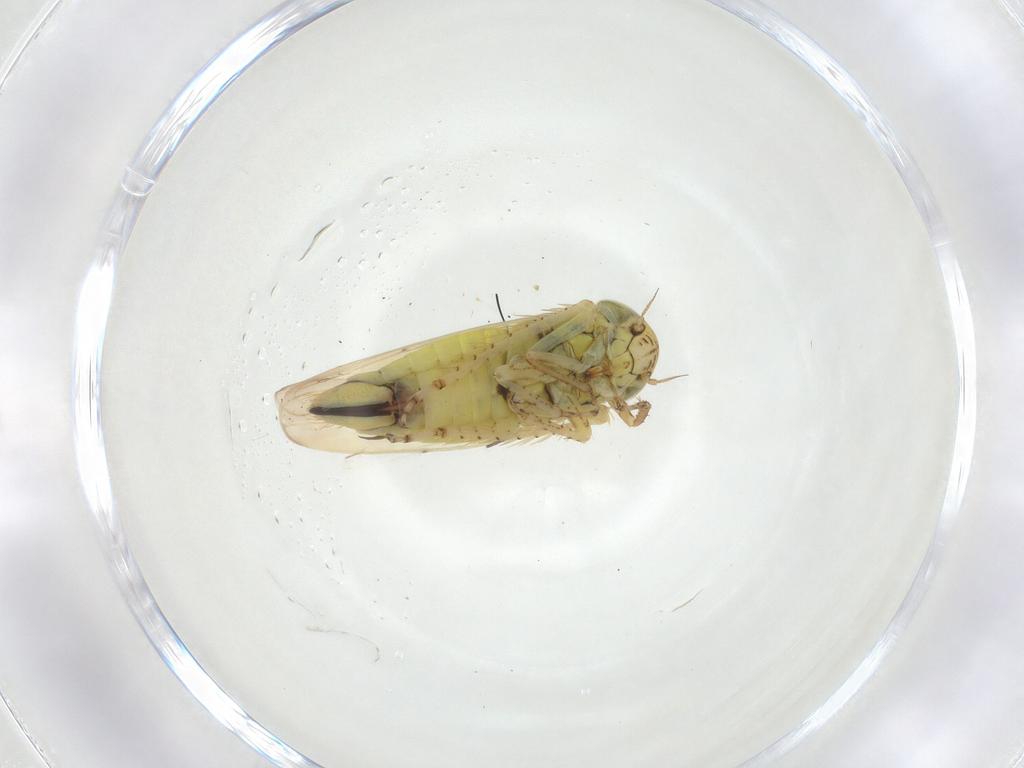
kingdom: Animalia
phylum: Arthropoda
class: Insecta
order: Hemiptera
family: Cicadellidae
